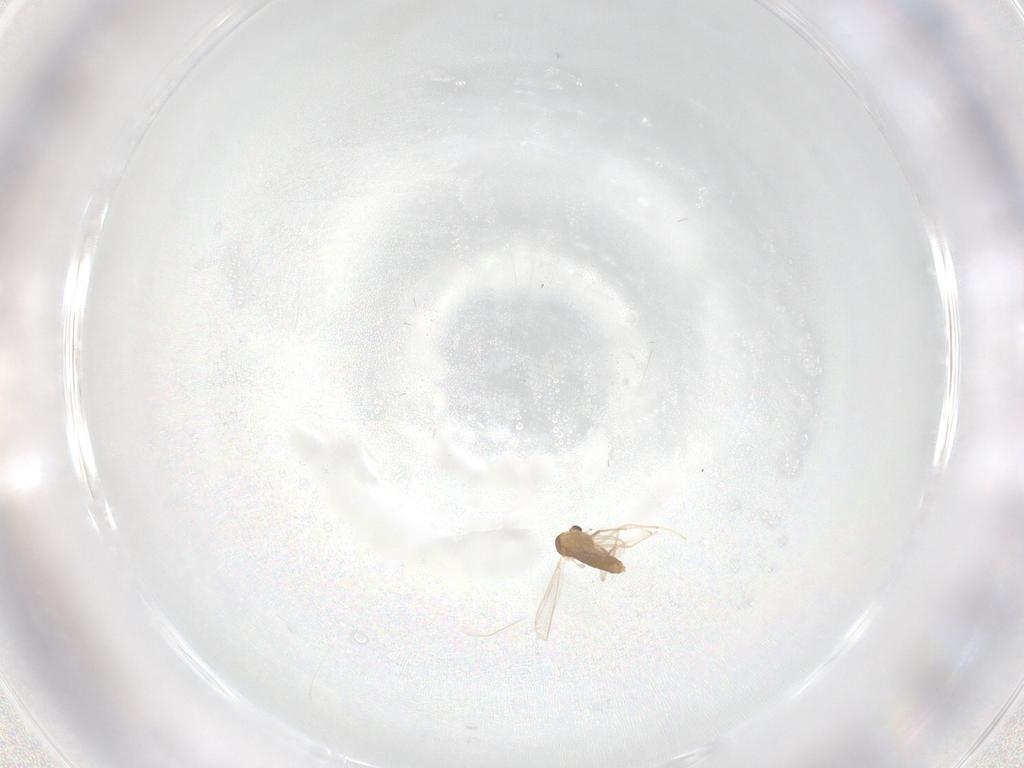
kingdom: Animalia
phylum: Arthropoda
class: Insecta
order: Diptera
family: Chironomidae
